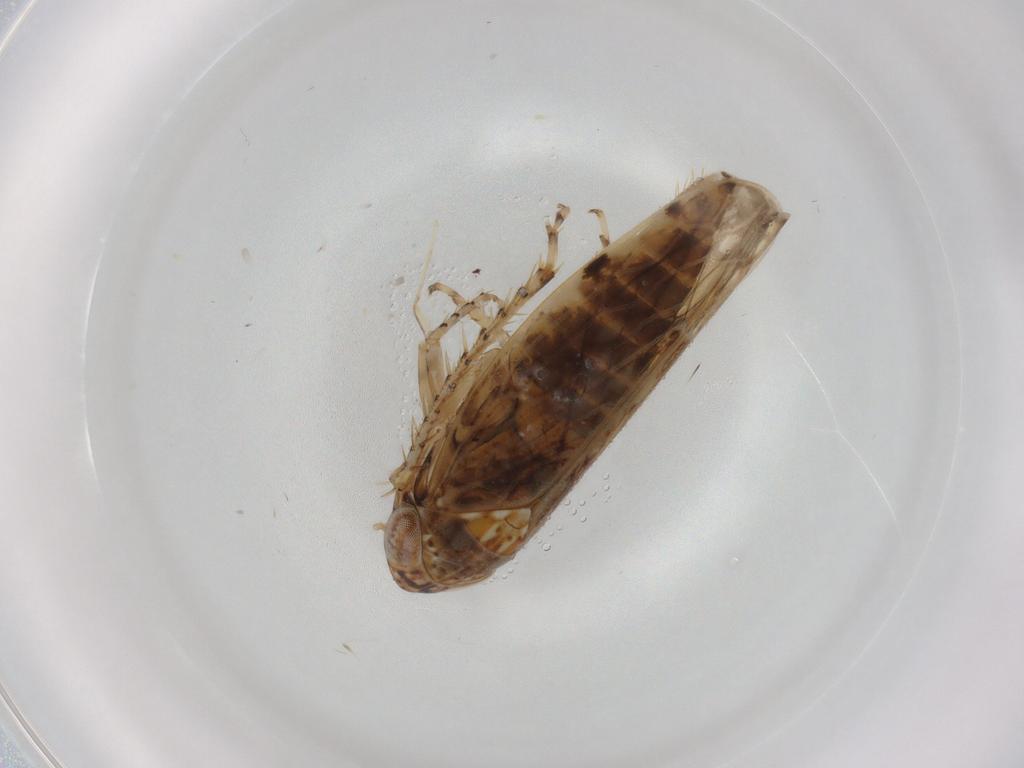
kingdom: Animalia
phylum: Arthropoda
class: Insecta
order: Hemiptera
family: Cicadellidae
